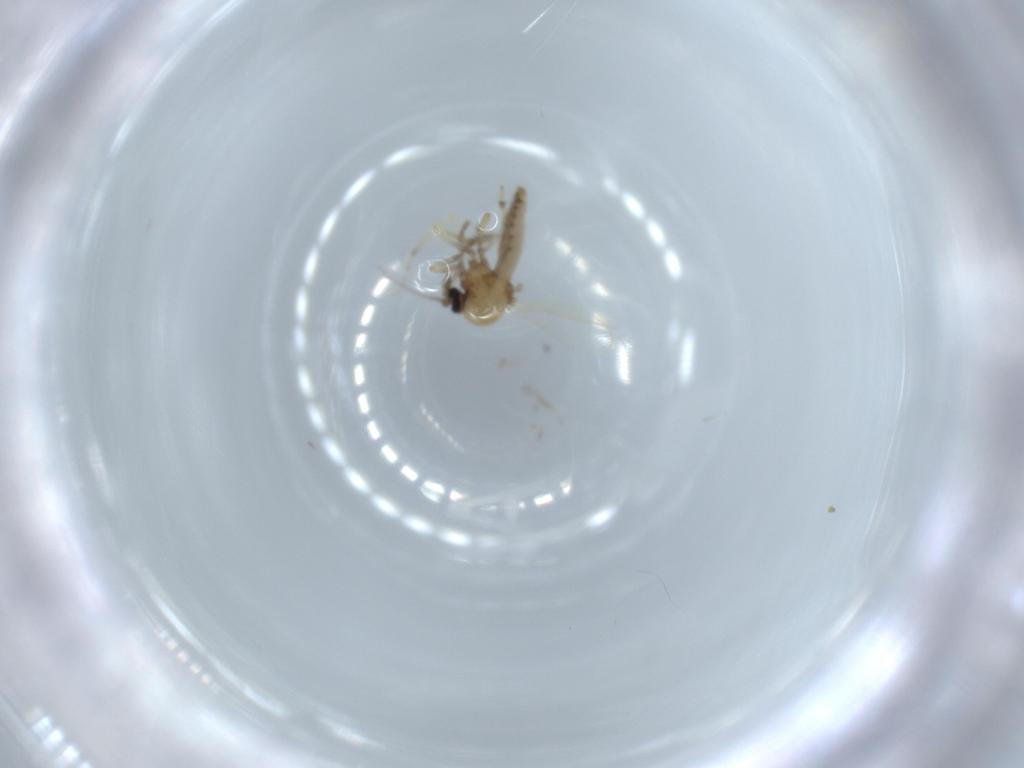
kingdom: Animalia
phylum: Arthropoda
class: Insecta
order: Diptera
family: Ceratopogonidae
